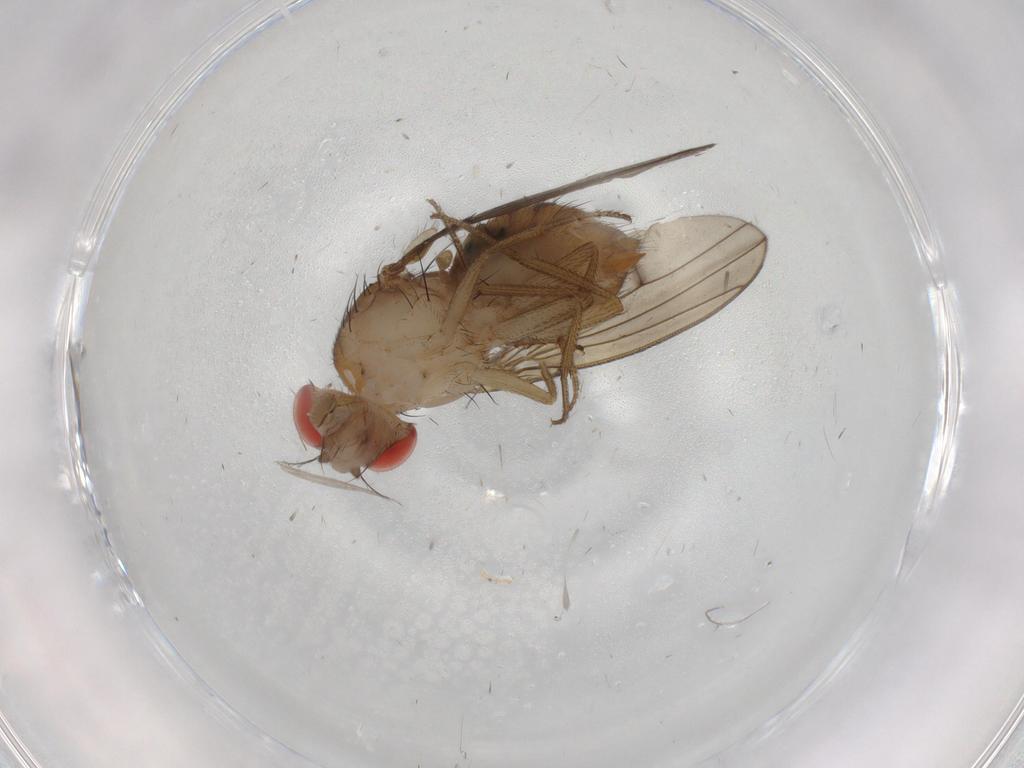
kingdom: Animalia
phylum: Arthropoda
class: Insecta
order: Diptera
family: Drosophilidae
